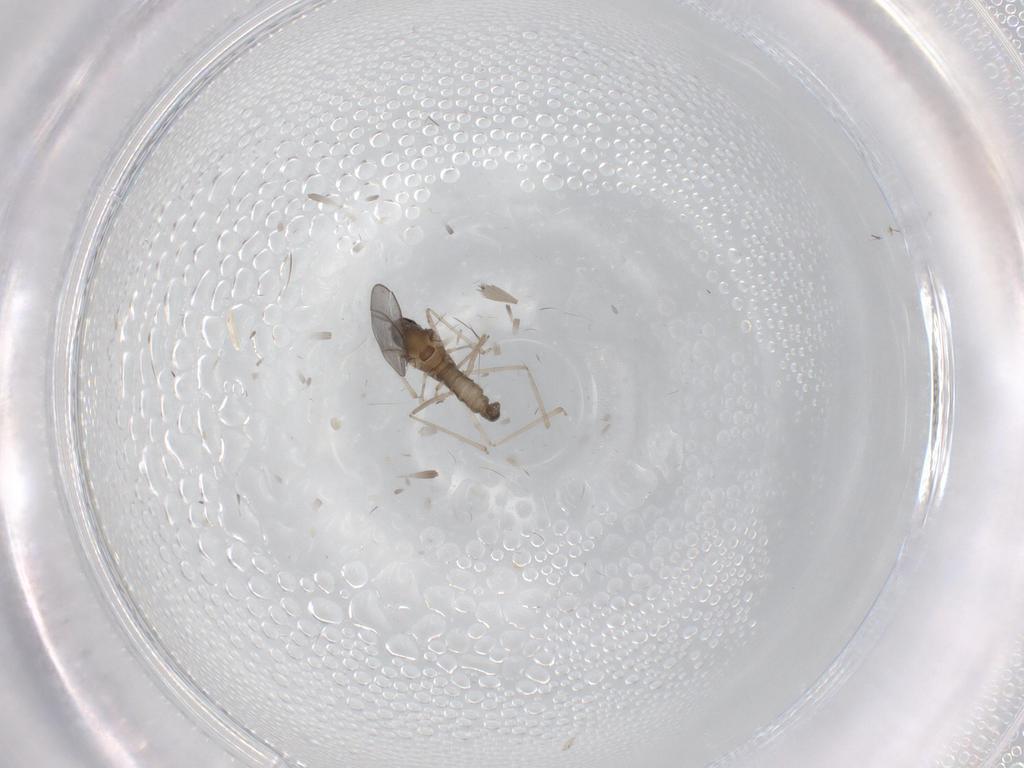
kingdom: Animalia
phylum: Arthropoda
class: Insecta
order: Diptera
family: Cecidomyiidae
